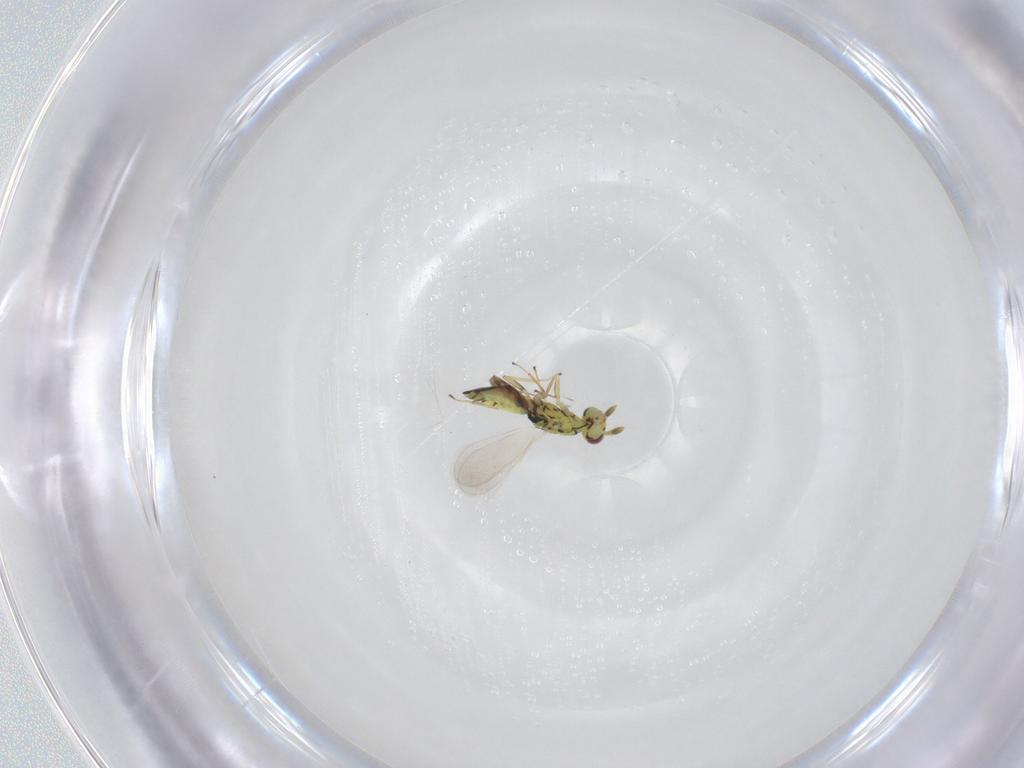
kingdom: Animalia
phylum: Arthropoda
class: Insecta
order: Hymenoptera
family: Eulophidae
